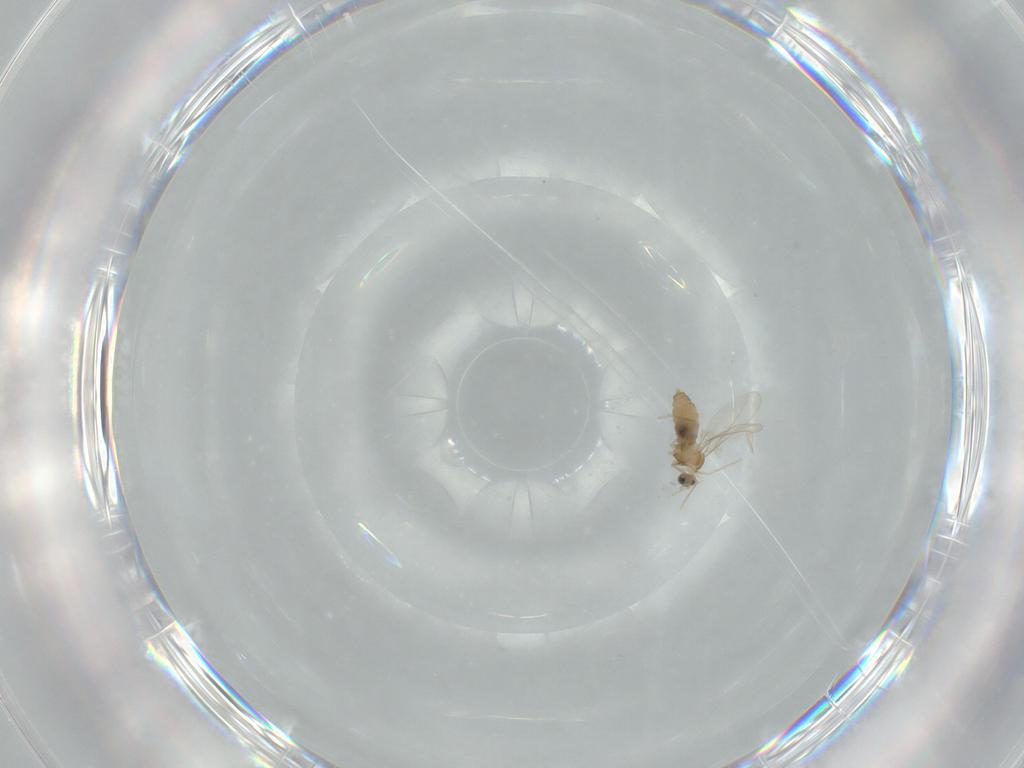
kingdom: Animalia
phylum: Arthropoda
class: Insecta
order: Diptera
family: Cecidomyiidae
